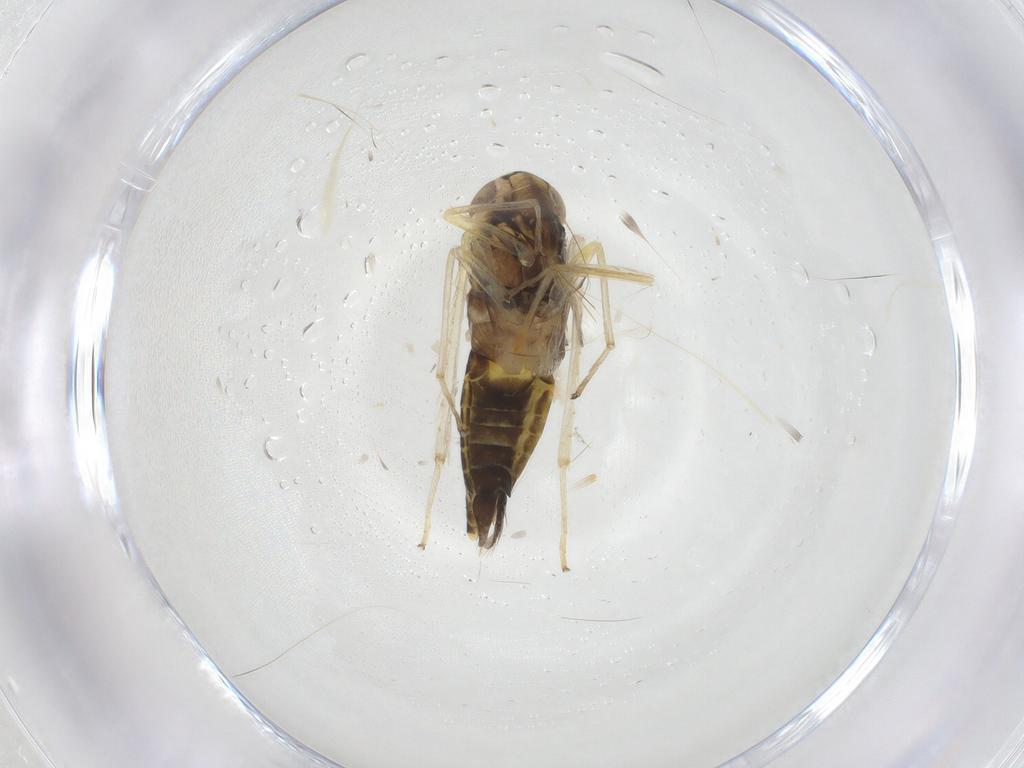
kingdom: Animalia
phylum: Arthropoda
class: Insecta
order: Hemiptera
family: Cicadellidae
